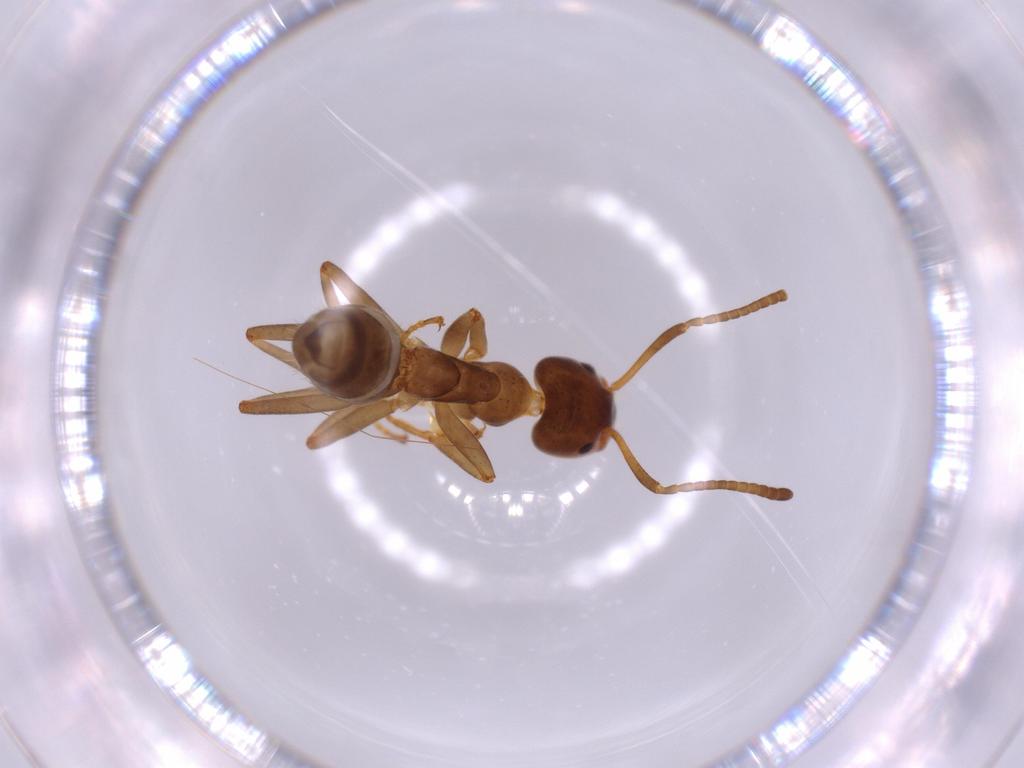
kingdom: Animalia
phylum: Arthropoda
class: Insecta
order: Hymenoptera
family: Formicidae
